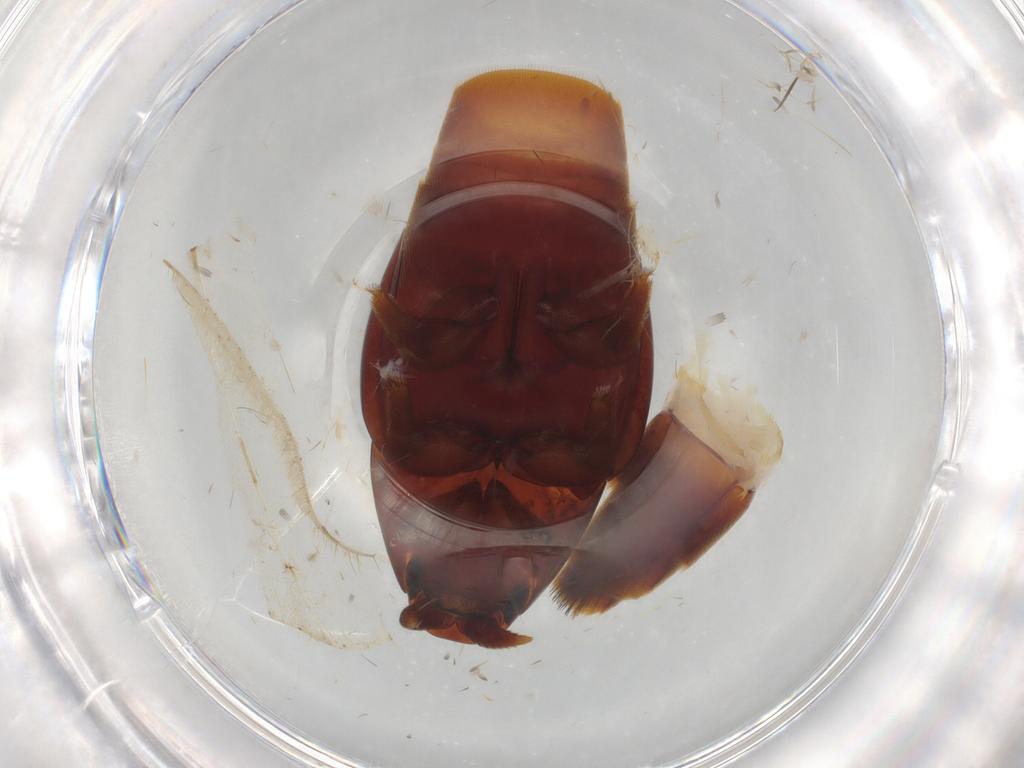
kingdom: Animalia
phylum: Arthropoda
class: Insecta
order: Coleoptera
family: Staphylinidae
